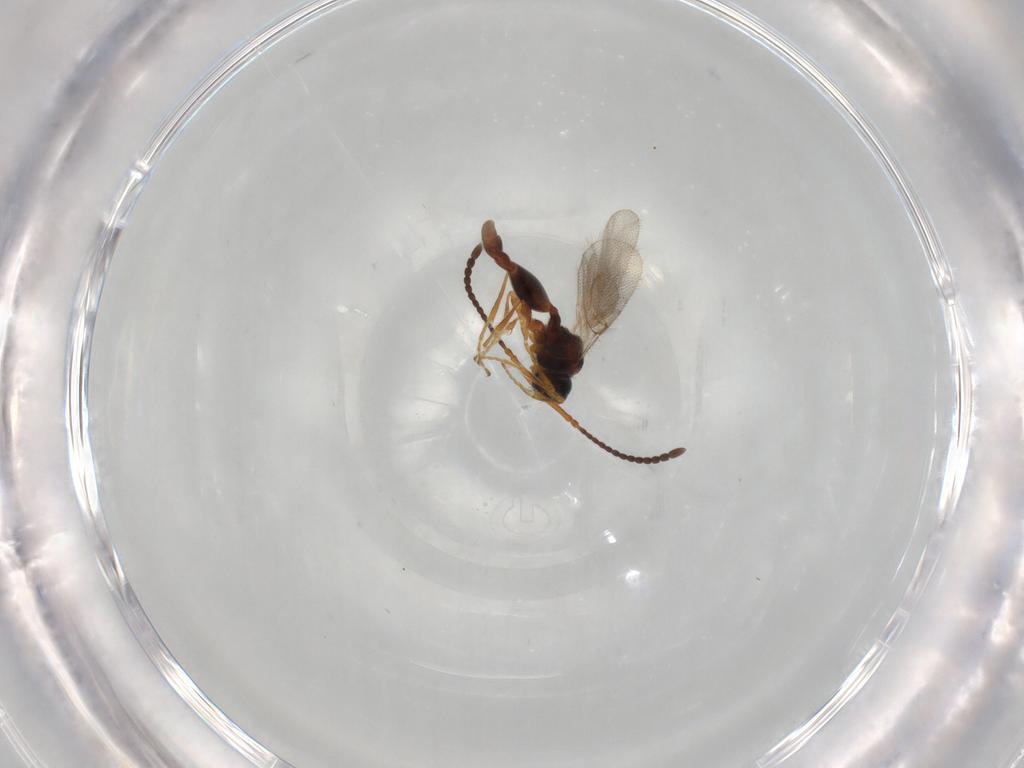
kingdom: Animalia
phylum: Arthropoda
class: Insecta
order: Hymenoptera
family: Diapriidae
